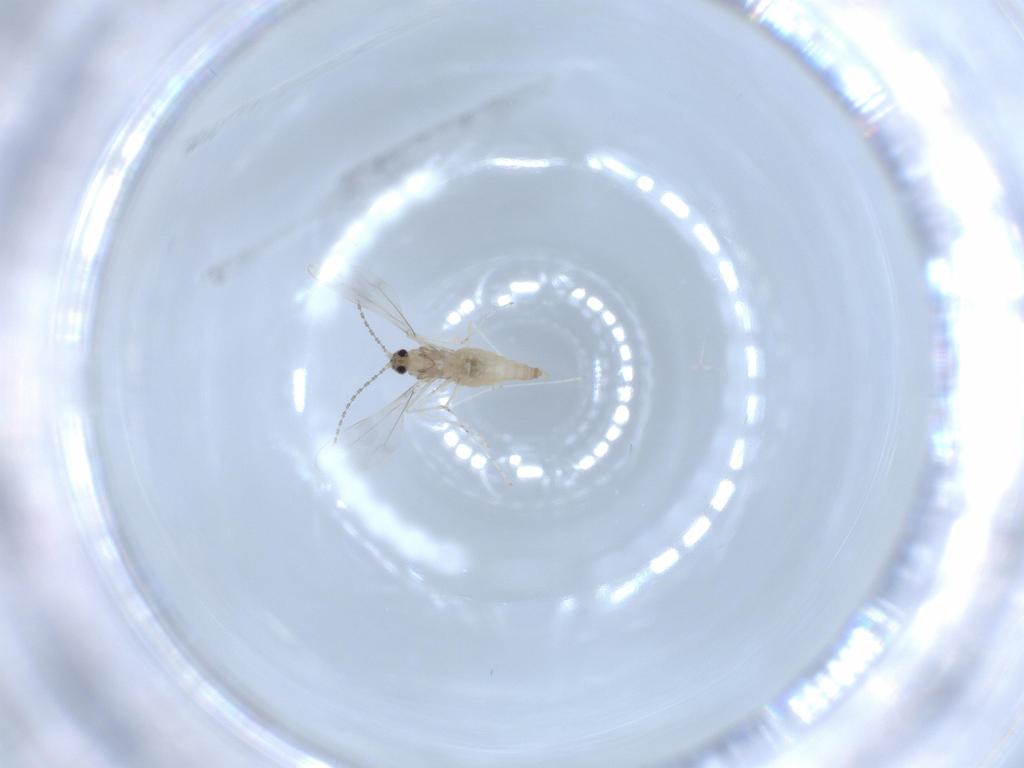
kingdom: Animalia
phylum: Arthropoda
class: Insecta
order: Diptera
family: Cecidomyiidae
